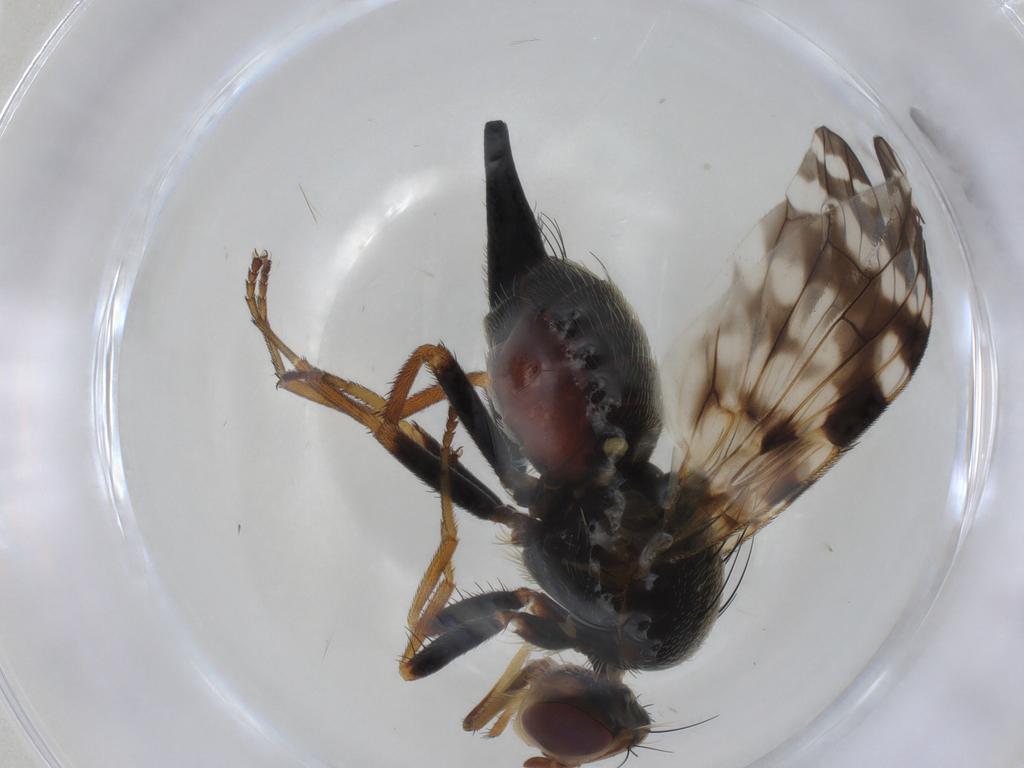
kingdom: Animalia
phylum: Arthropoda
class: Insecta
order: Diptera
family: Tephritidae
